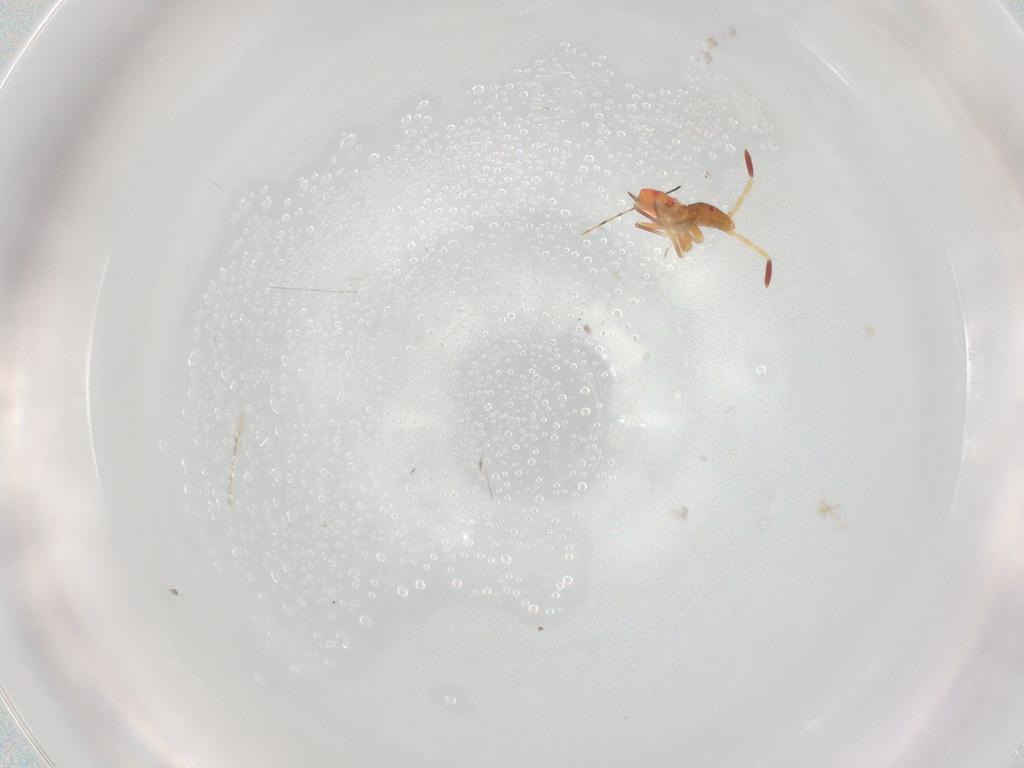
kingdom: Animalia
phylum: Arthropoda
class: Insecta
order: Hemiptera
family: Oxycarenidae
